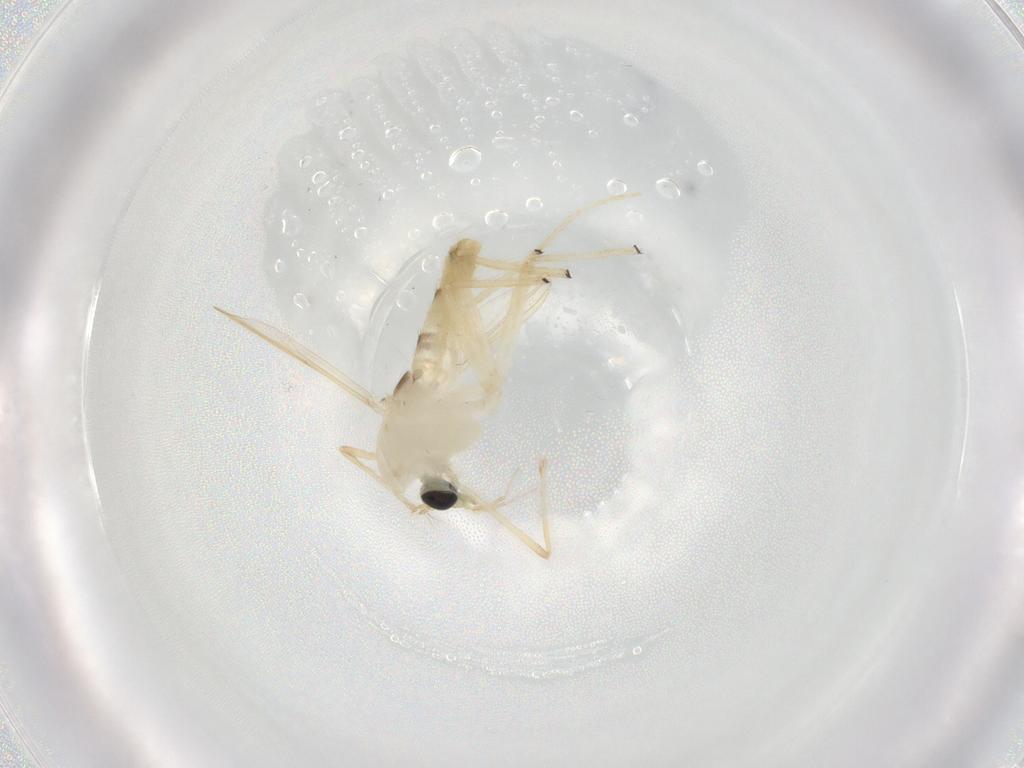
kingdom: Animalia
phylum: Arthropoda
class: Insecta
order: Diptera
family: Chironomidae
